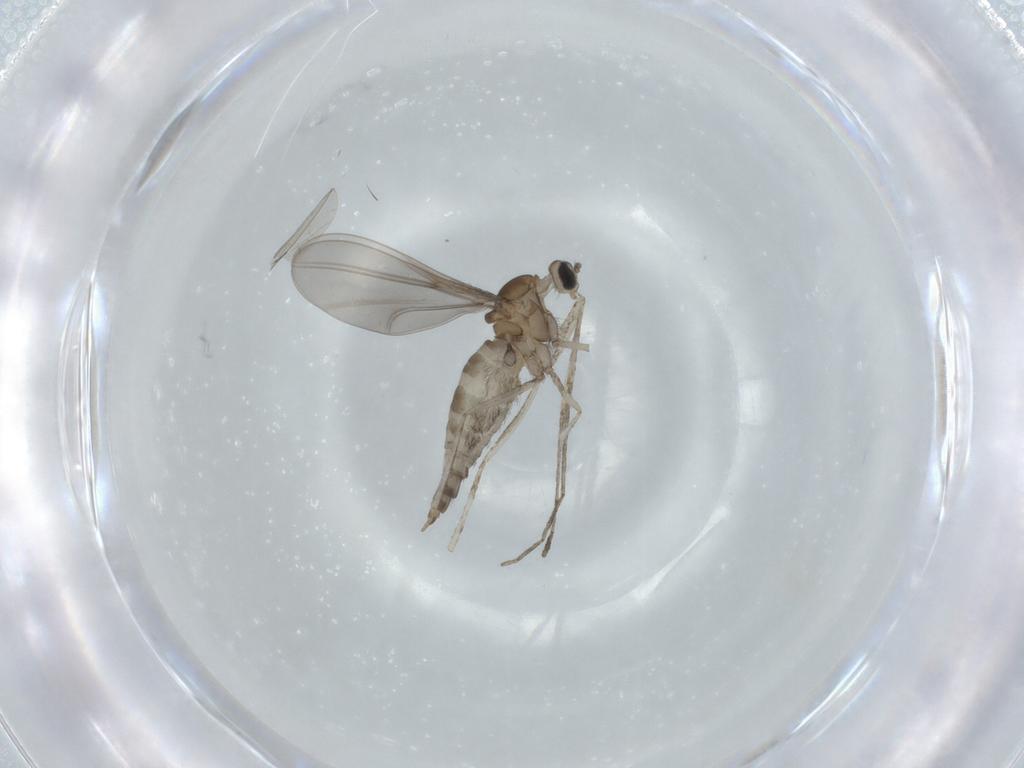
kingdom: Animalia
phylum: Arthropoda
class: Insecta
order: Diptera
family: Cecidomyiidae
